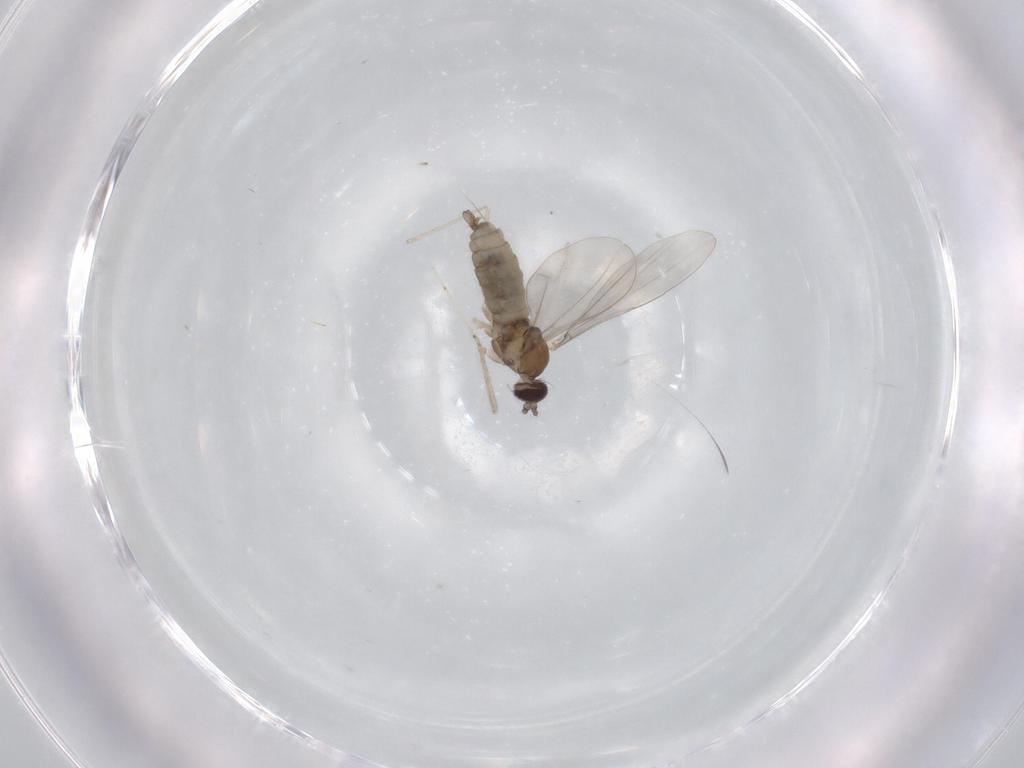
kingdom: Animalia
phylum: Arthropoda
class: Insecta
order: Diptera
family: Cecidomyiidae
